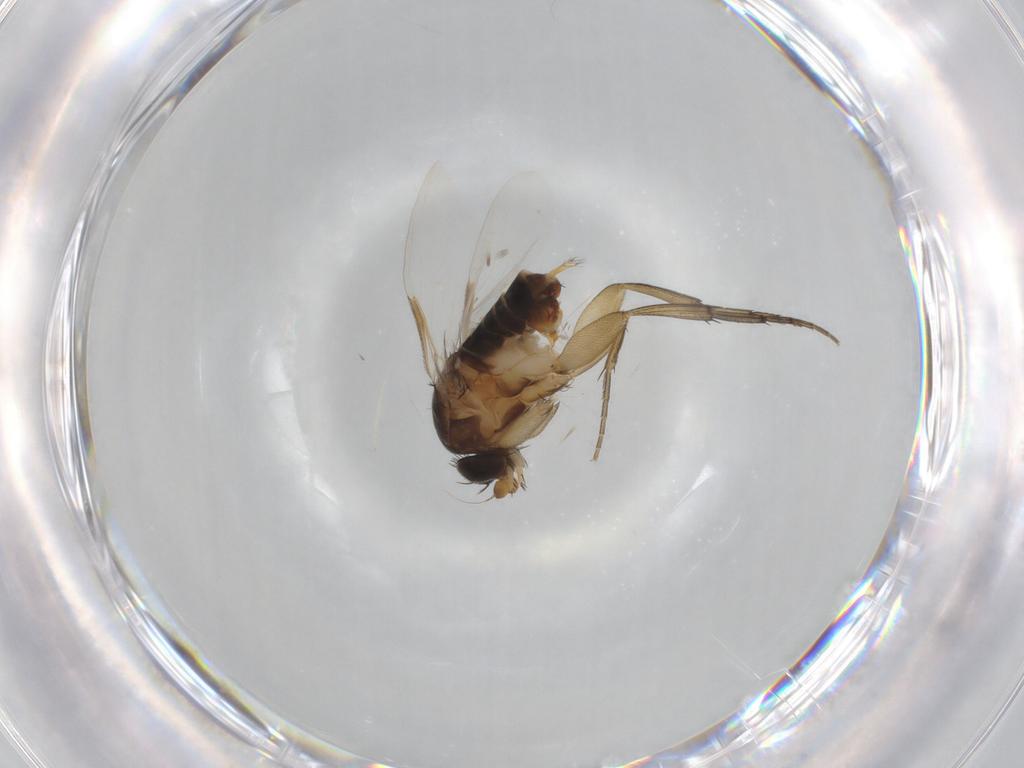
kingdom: Animalia
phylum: Arthropoda
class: Insecta
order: Diptera
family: Phoridae
